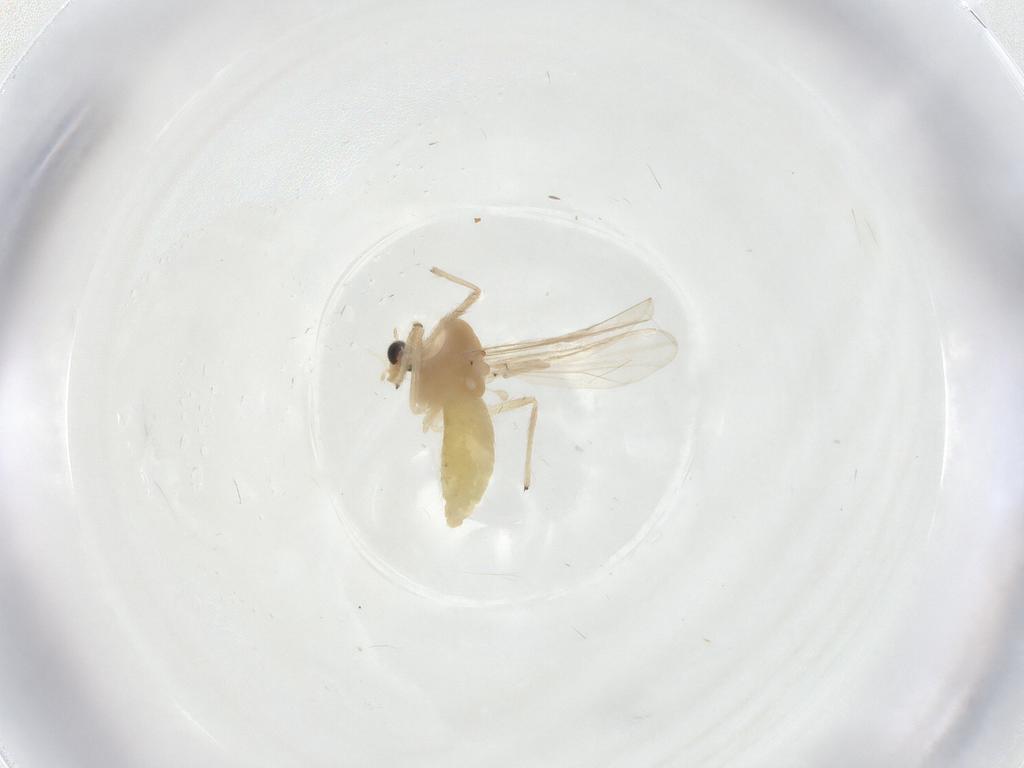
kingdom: Animalia
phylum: Arthropoda
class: Insecta
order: Diptera
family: Chironomidae
